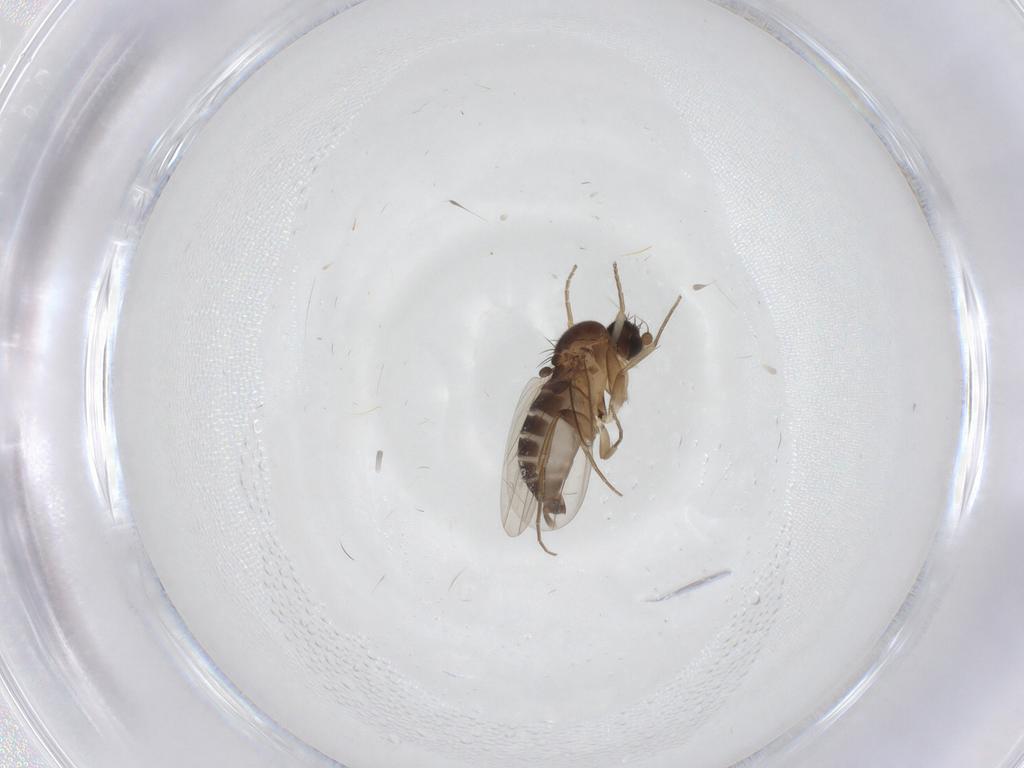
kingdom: Animalia
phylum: Arthropoda
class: Insecta
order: Diptera
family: Phoridae
